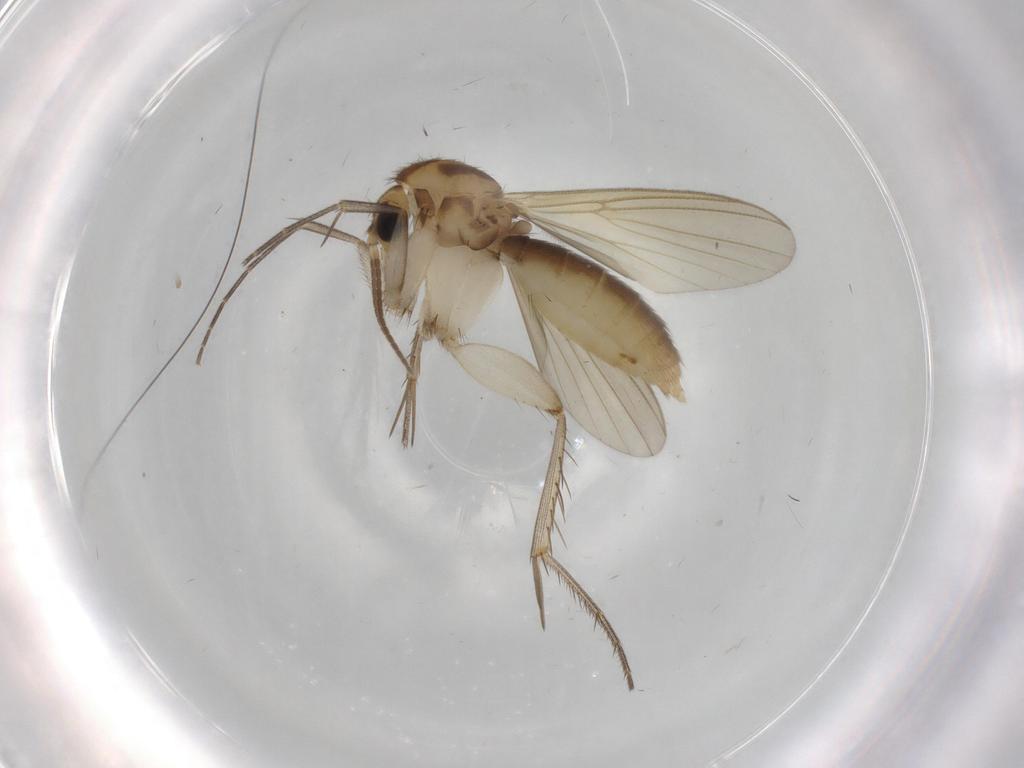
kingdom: Animalia
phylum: Arthropoda
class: Insecta
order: Diptera
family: Mycetophilidae
